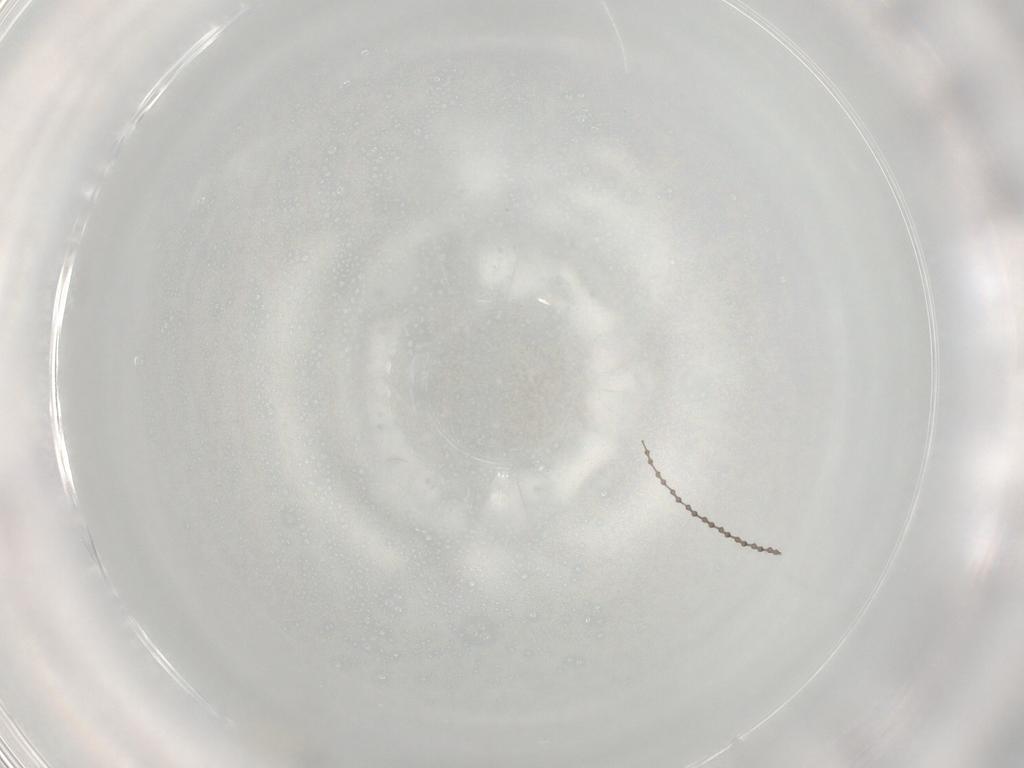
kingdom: Animalia
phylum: Arthropoda
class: Insecta
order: Diptera
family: Cecidomyiidae
